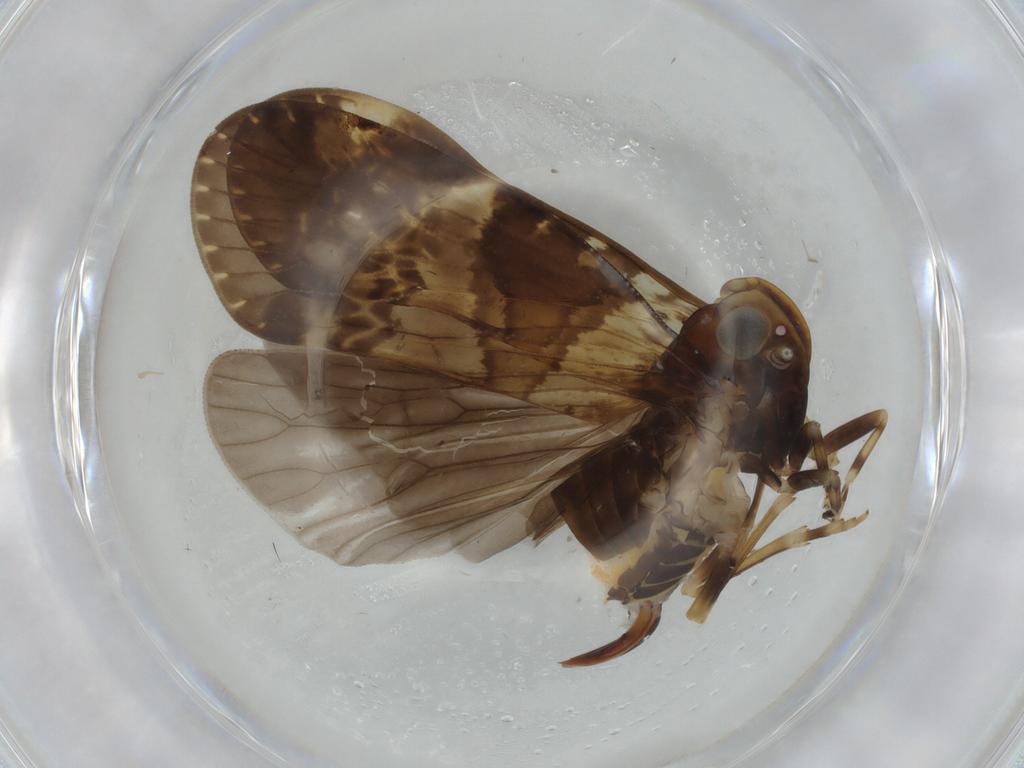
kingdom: Animalia
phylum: Arthropoda
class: Insecta
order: Hemiptera
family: Cixiidae
